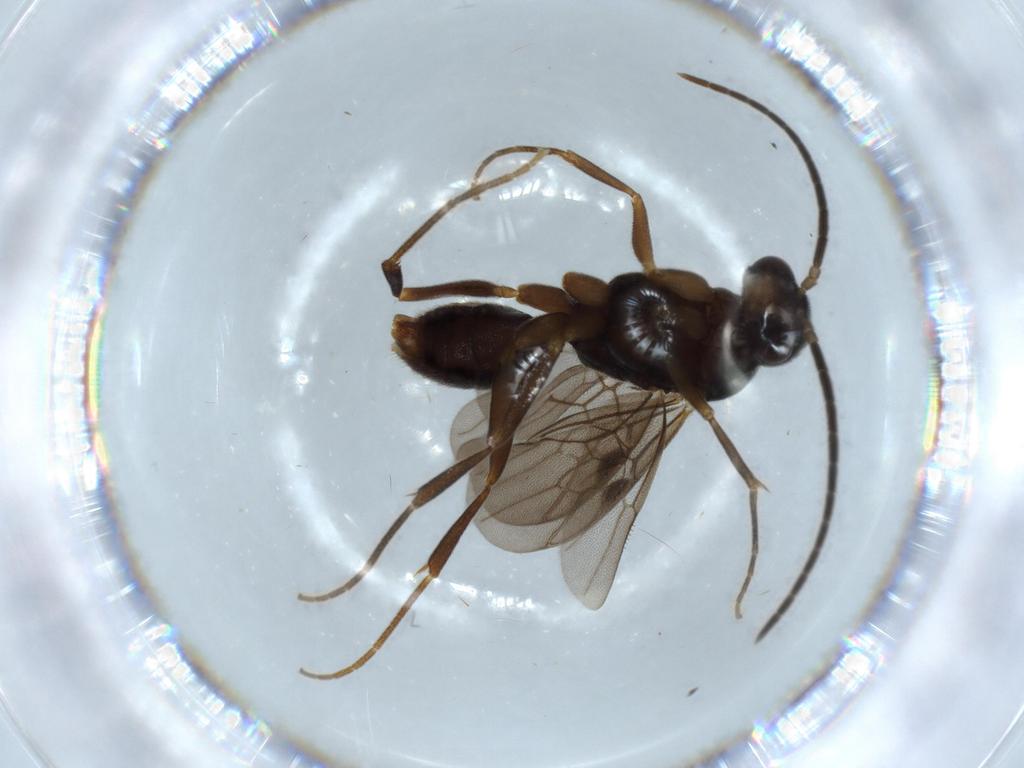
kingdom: Animalia
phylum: Arthropoda
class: Insecta
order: Hymenoptera
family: Formicidae
